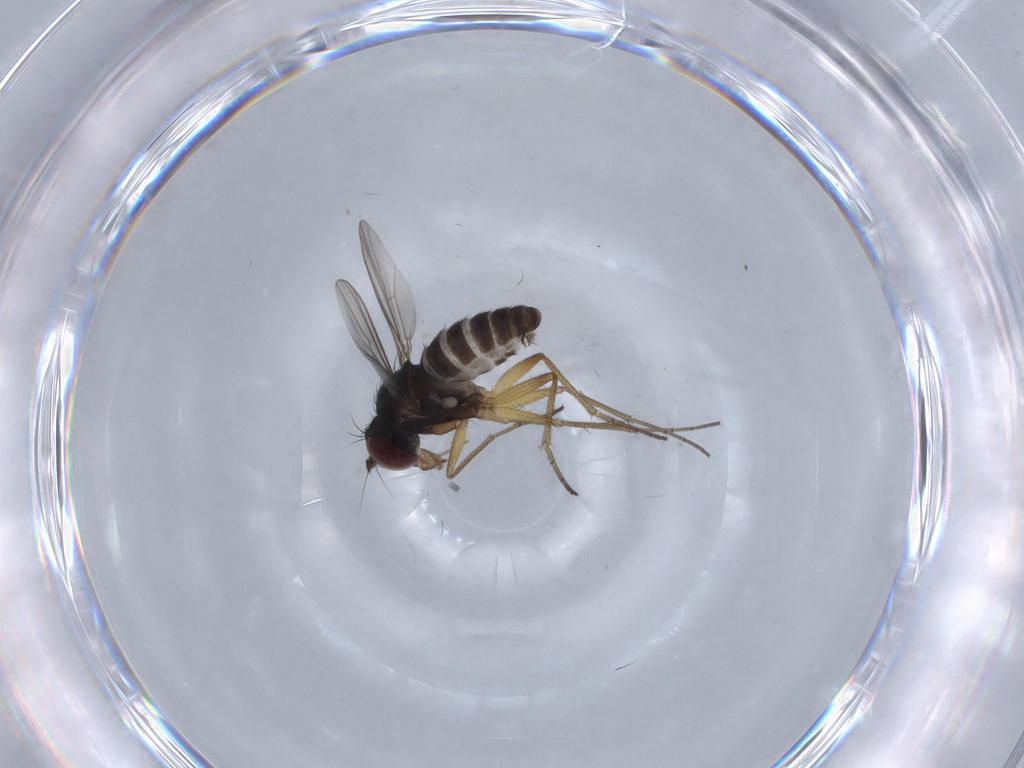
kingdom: Animalia
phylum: Arthropoda
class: Insecta
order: Diptera
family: Dolichopodidae
